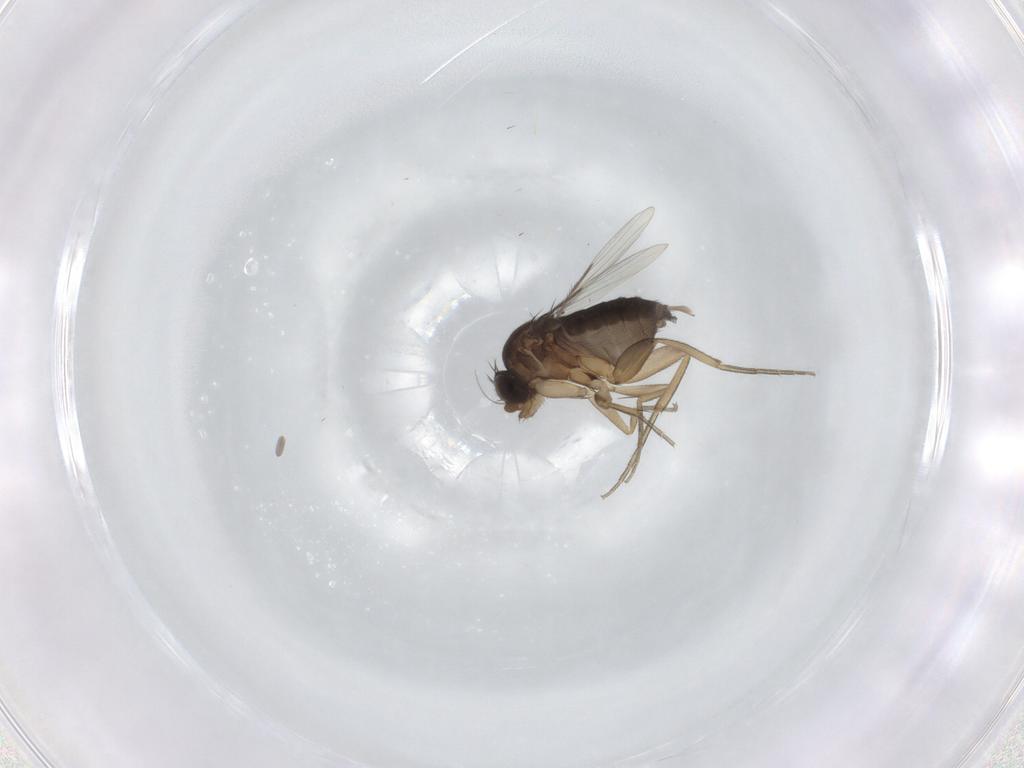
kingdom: Animalia
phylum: Arthropoda
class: Insecta
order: Diptera
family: Phoridae
